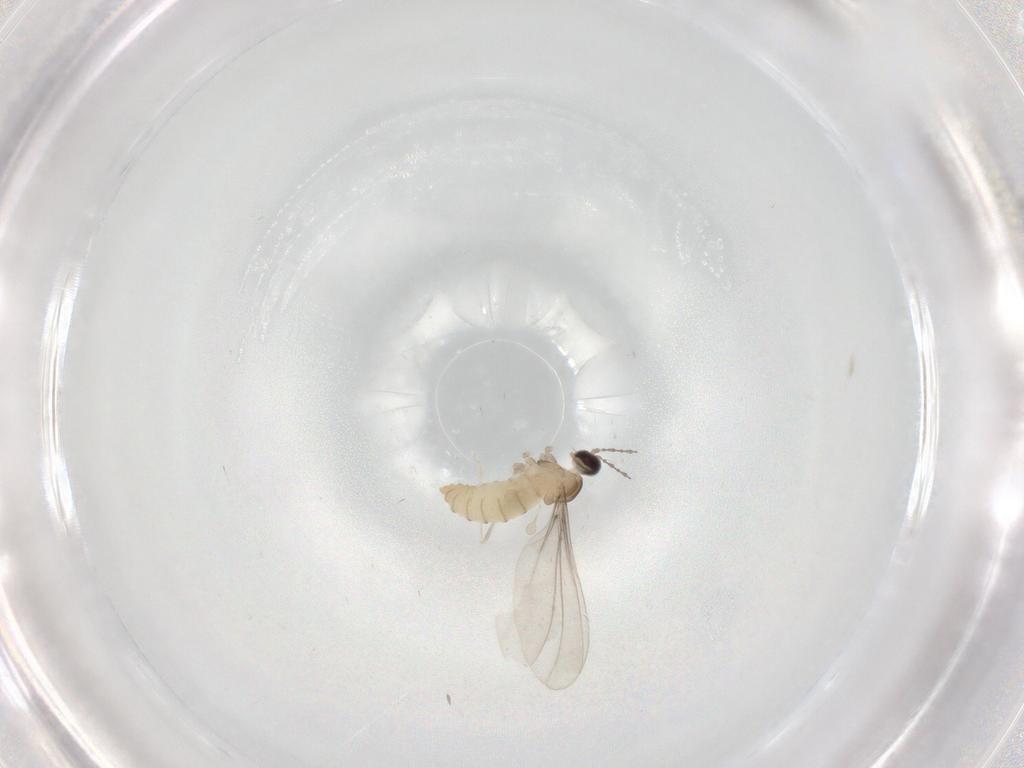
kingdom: Animalia
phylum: Arthropoda
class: Insecta
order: Diptera
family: Cecidomyiidae
